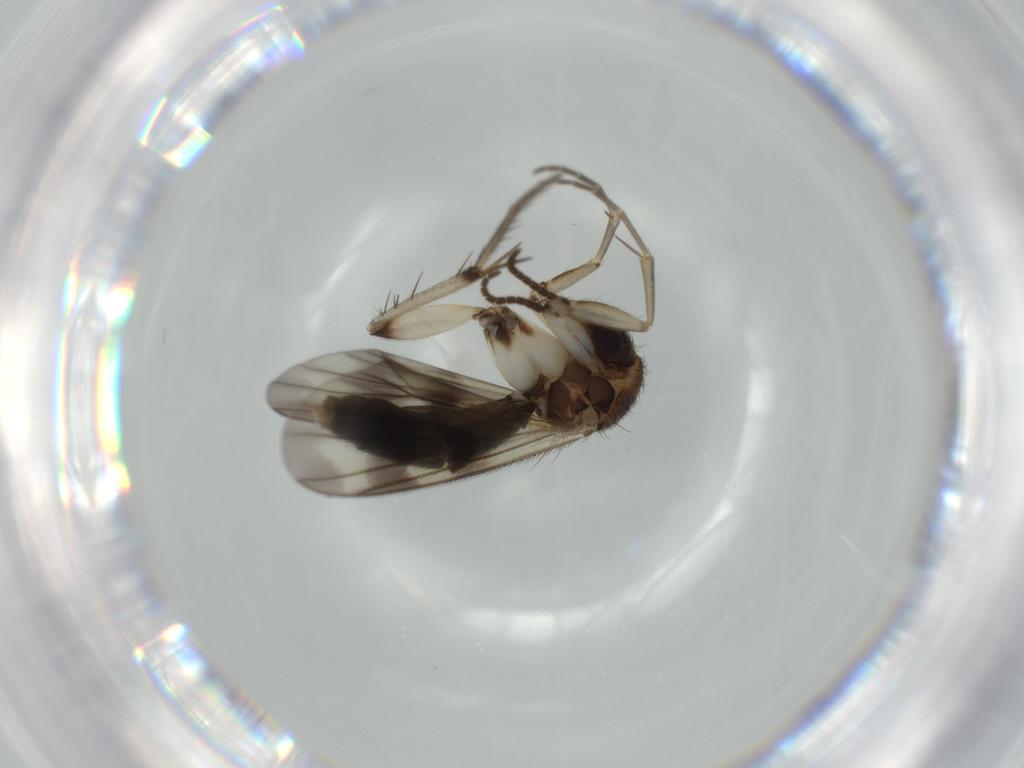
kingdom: Animalia
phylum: Arthropoda
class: Insecta
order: Diptera
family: Mycetophilidae
